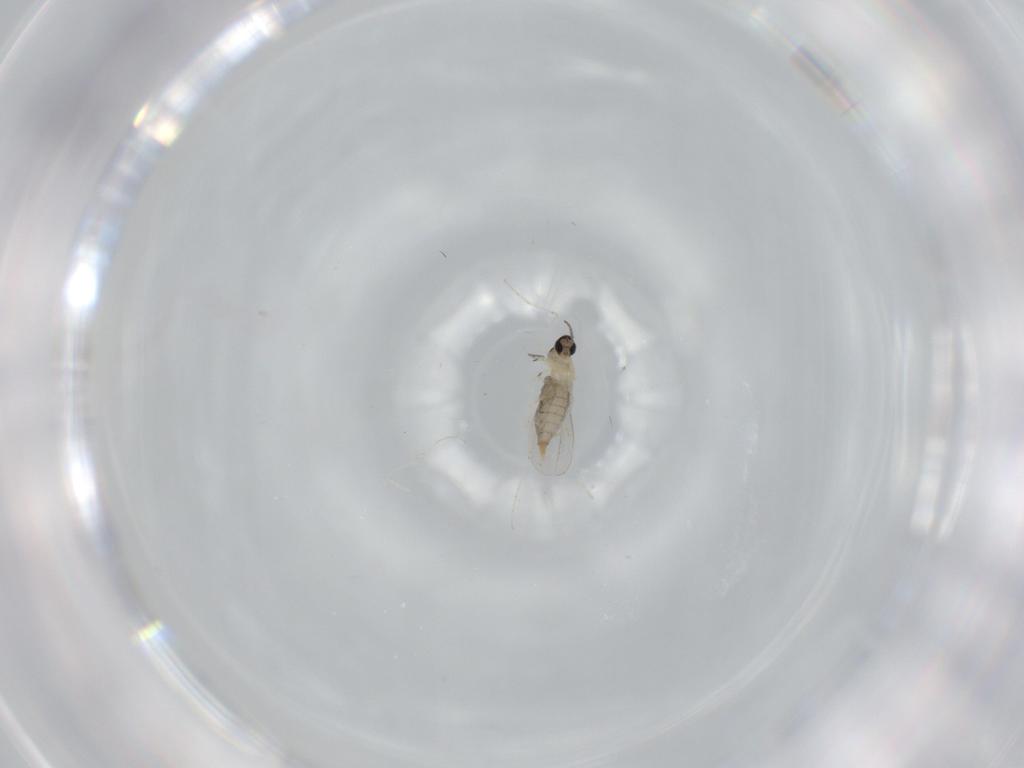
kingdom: Animalia
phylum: Arthropoda
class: Insecta
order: Diptera
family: Cecidomyiidae
